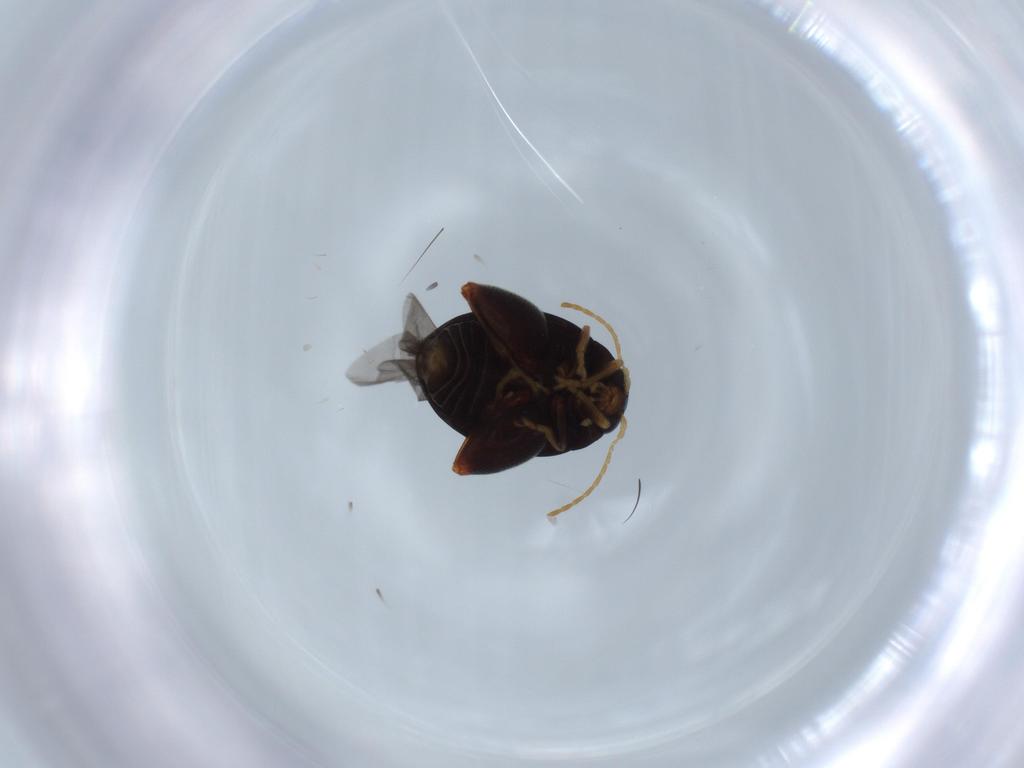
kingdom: Animalia
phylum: Arthropoda
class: Insecta
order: Coleoptera
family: Chrysomelidae
